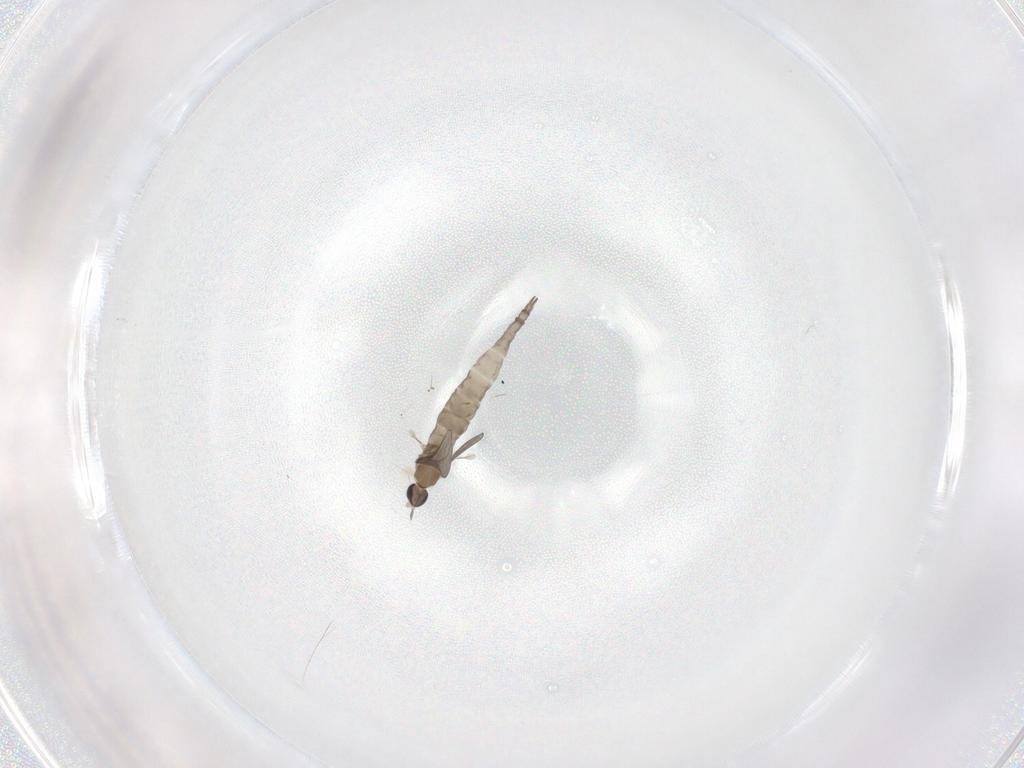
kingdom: Animalia
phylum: Arthropoda
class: Insecta
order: Diptera
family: Cecidomyiidae
